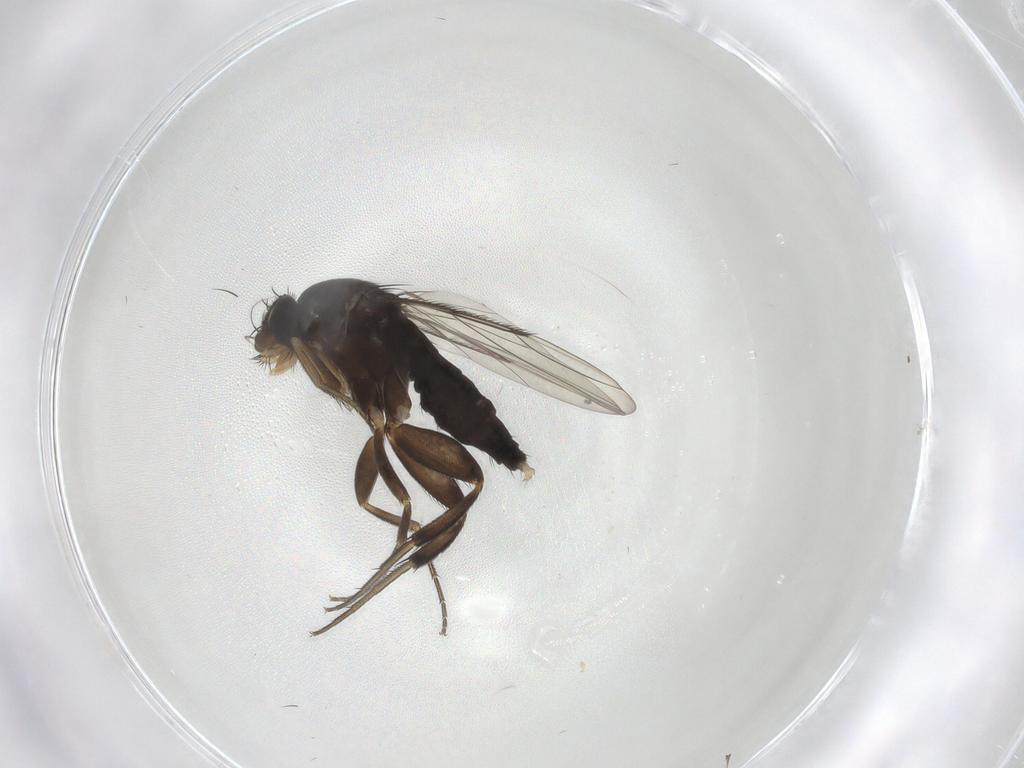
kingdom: Animalia
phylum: Arthropoda
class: Insecta
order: Diptera
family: Phoridae
